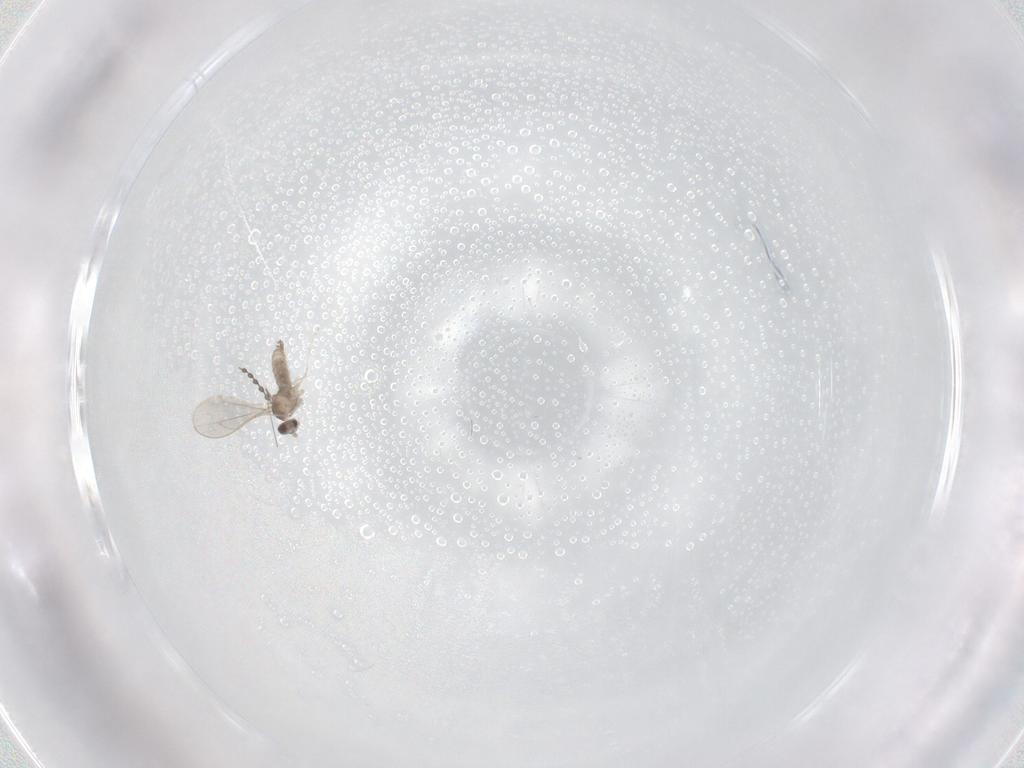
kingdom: Animalia
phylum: Arthropoda
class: Insecta
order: Diptera
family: Cecidomyiidae
